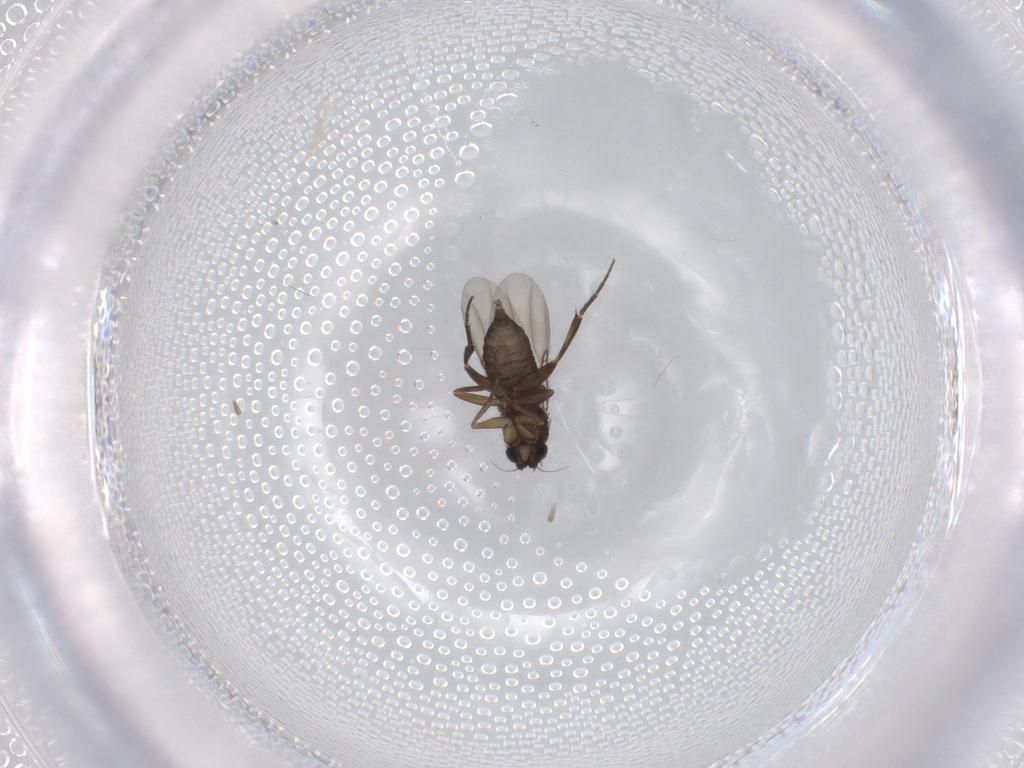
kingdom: Animalia
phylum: Arthropoda
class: Insecta
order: Diptera
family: Phoridae
